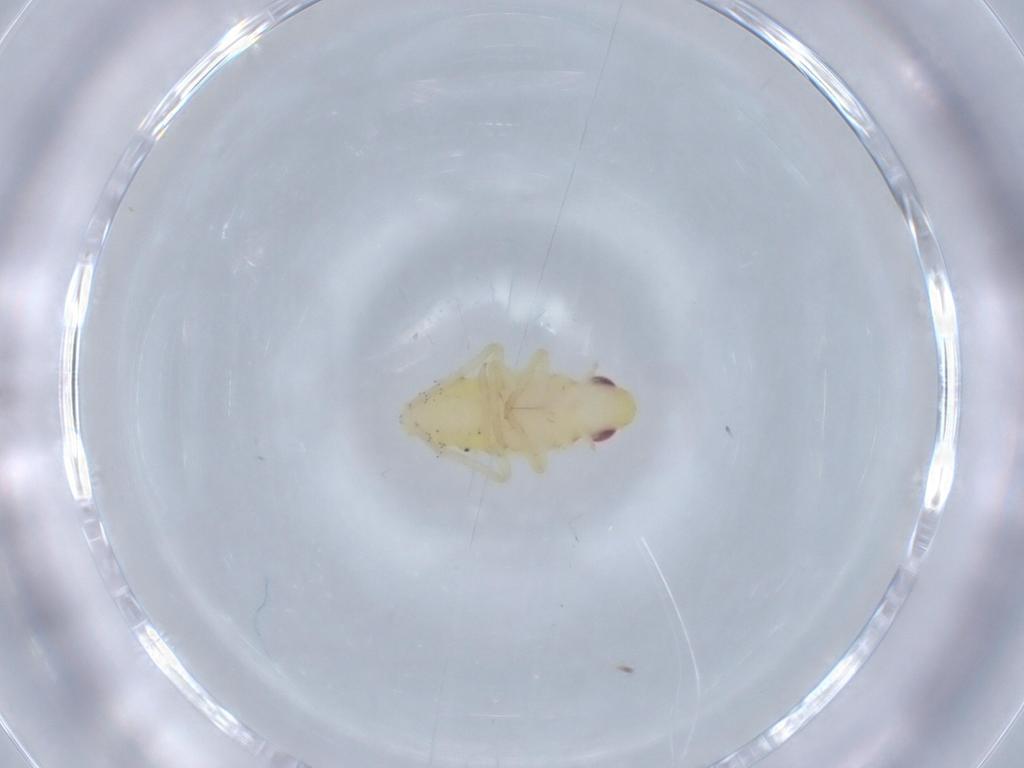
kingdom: Animalia
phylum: Arthropoda
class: Insecta
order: Hemiptera
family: Tropiduchidae
